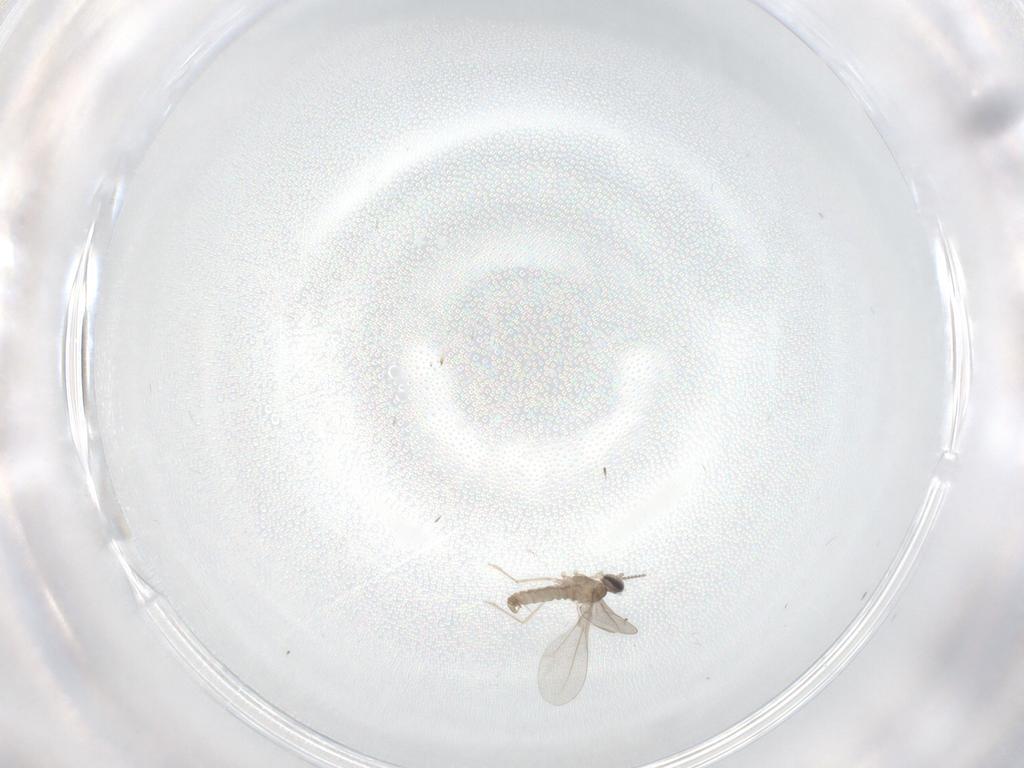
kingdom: Animalia
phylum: Arthropoda
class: Insecta
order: Diptera
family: Cecidomyiidae
